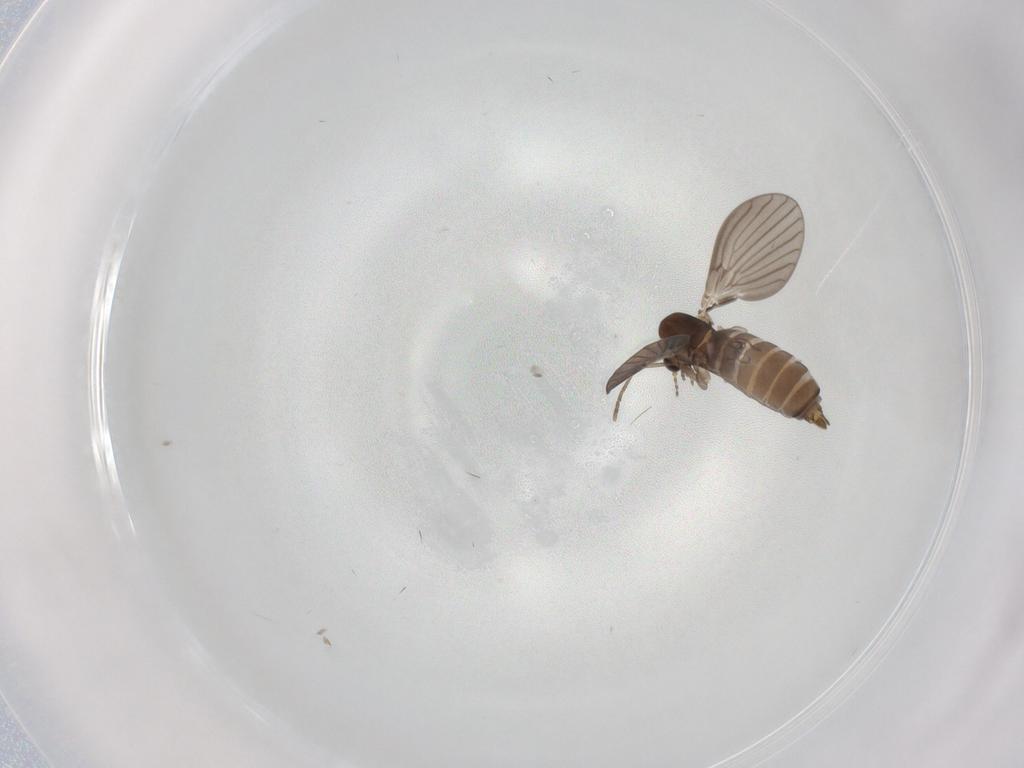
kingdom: Animalia
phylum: Arthropoda
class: Insecta
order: Diptera
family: Psychodidae
